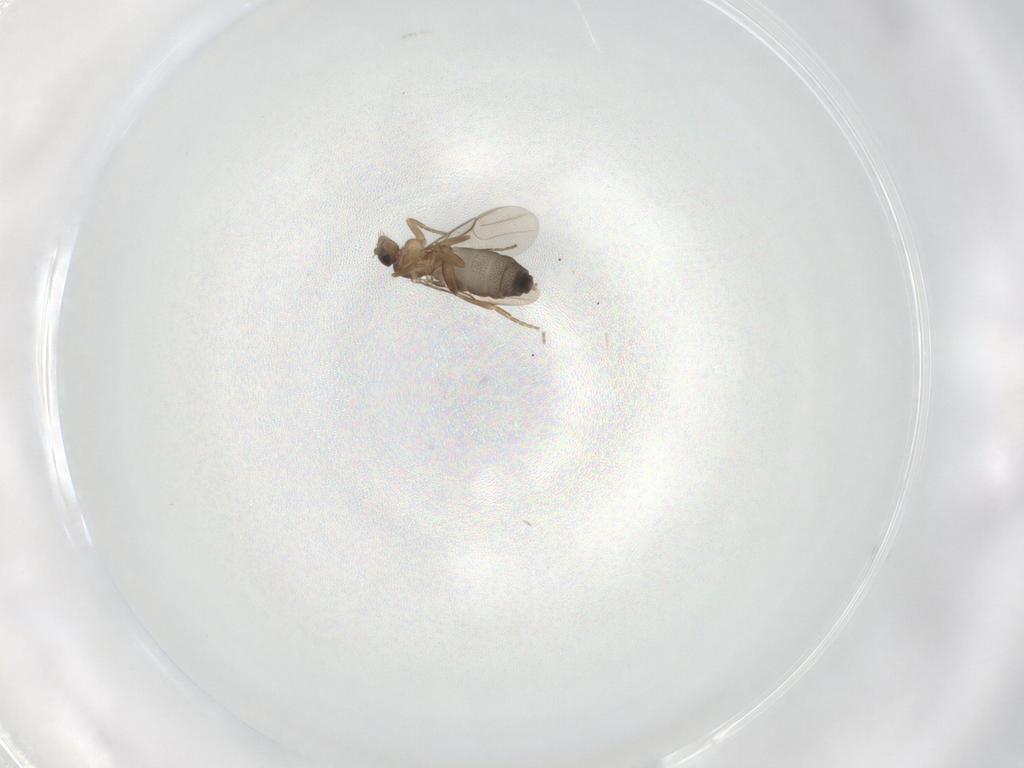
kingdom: Animalia
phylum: Arthropoda
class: Insecta
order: Diptera
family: Phoridae
